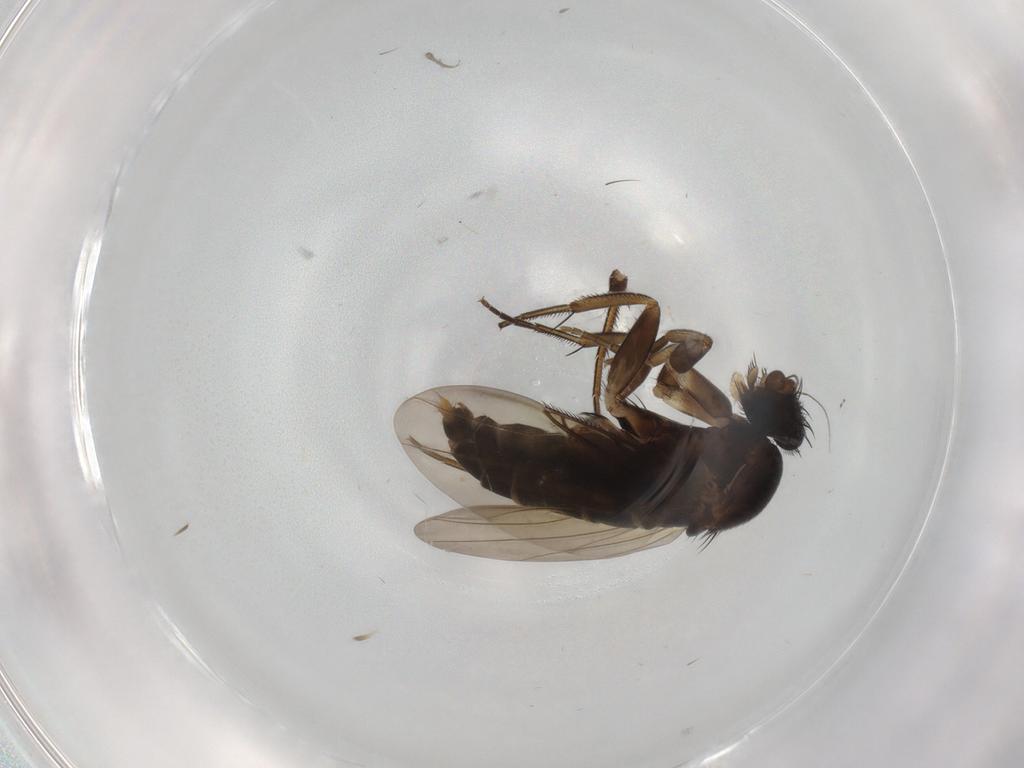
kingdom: Animalia
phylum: Arthropoda
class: Insecta
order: Diptera
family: Phoridae
